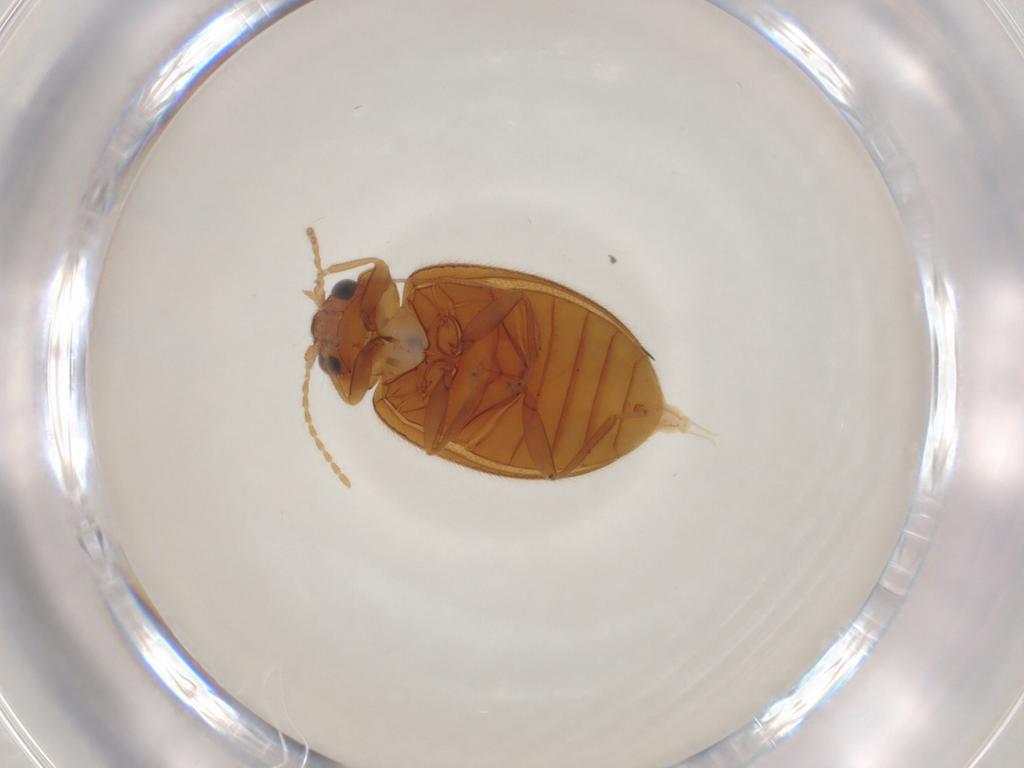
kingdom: Animalia
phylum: Arthropoda
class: Insecta
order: Coleoptera
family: Scirtidae
